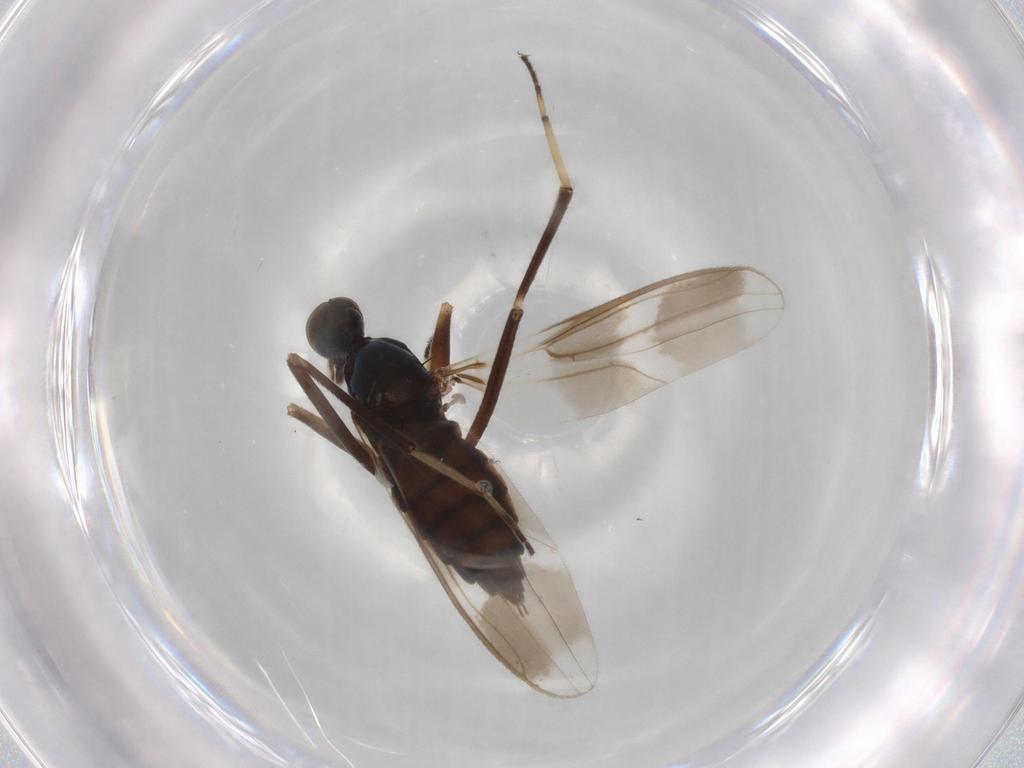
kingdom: Animalia
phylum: Arthropoda
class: Insecta
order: Diptera
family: Hybotidae
